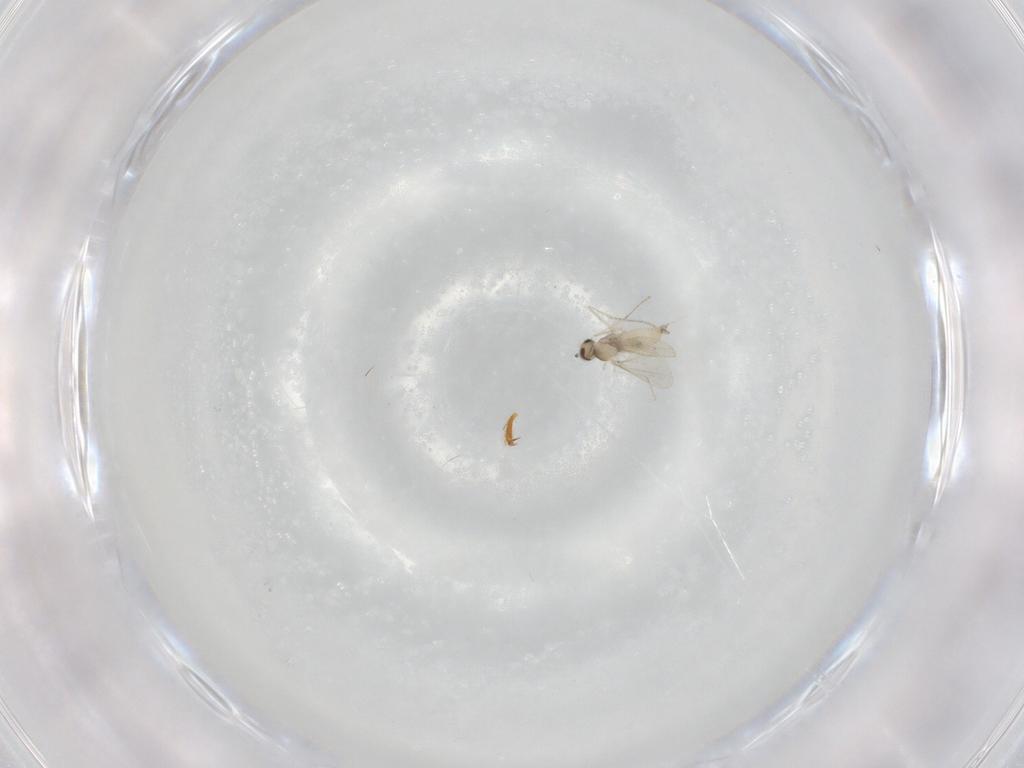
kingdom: Animalia
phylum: Arthropoda
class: Insecta
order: Diptera
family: Cecidomyiidae
